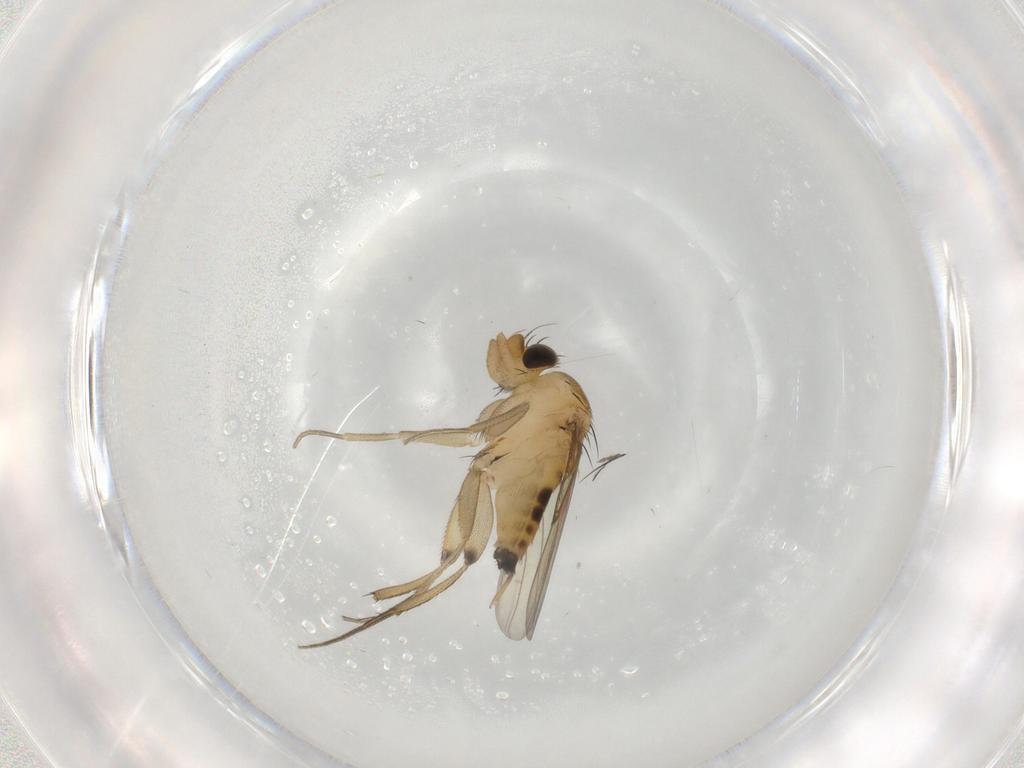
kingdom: Animalia
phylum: Arthropoda
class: Insecta
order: Diptera
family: Phoridae
